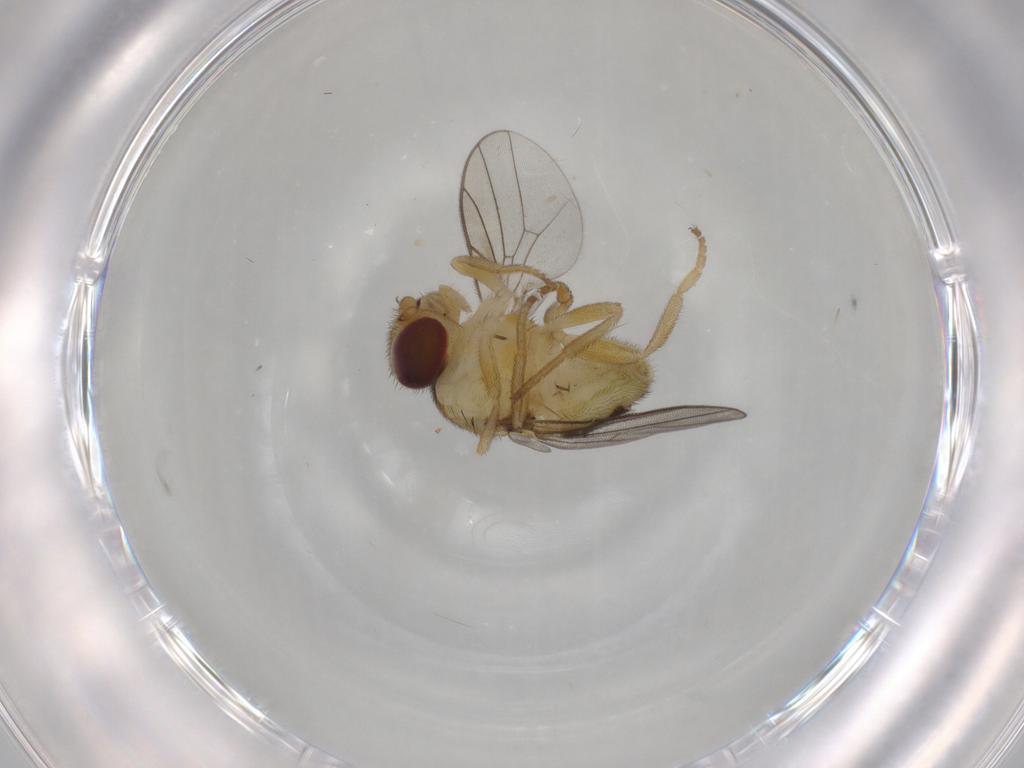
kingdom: Animalia
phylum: Arthropoda
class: Insecta
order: Diptera
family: Chloropidae
